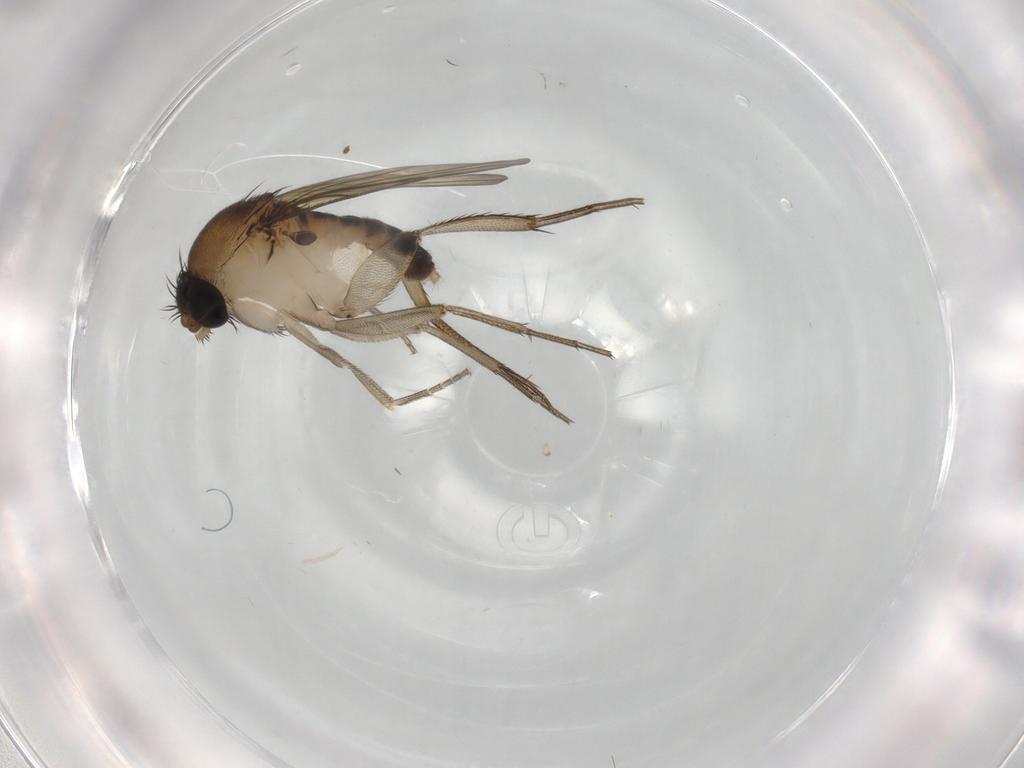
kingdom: Animalia
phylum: Arthropoda
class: Insecta
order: Diptera
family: Phoridae
